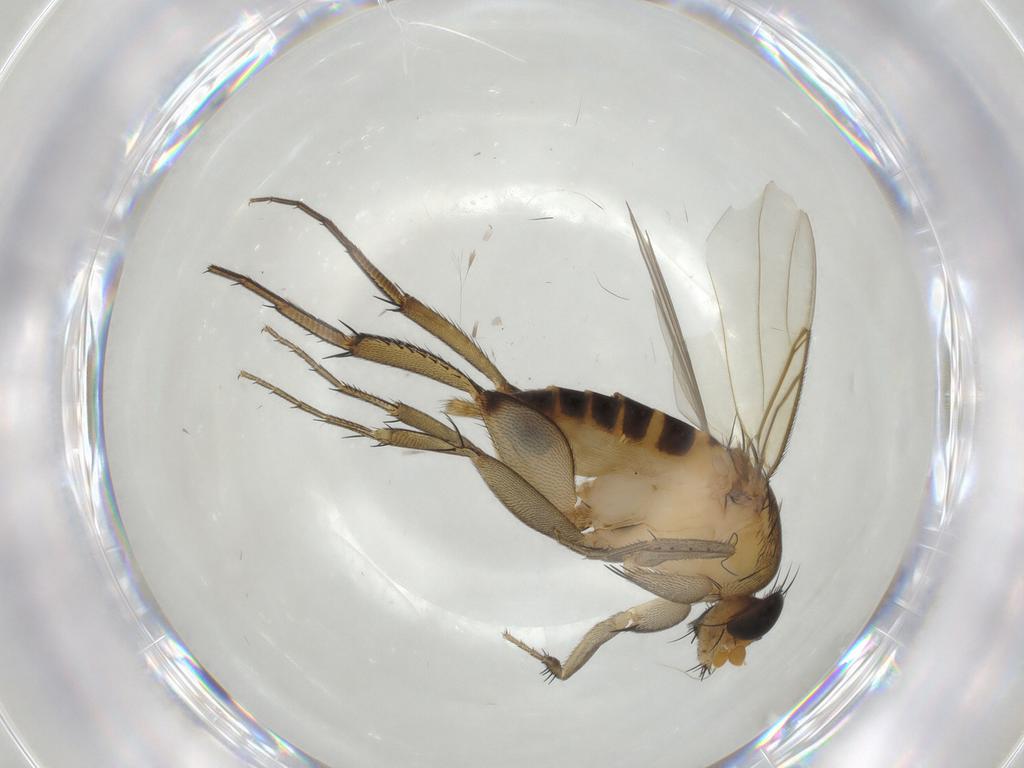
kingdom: Animalia
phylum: Arthropoda
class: Insecta
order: Diptera
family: Phoridae
